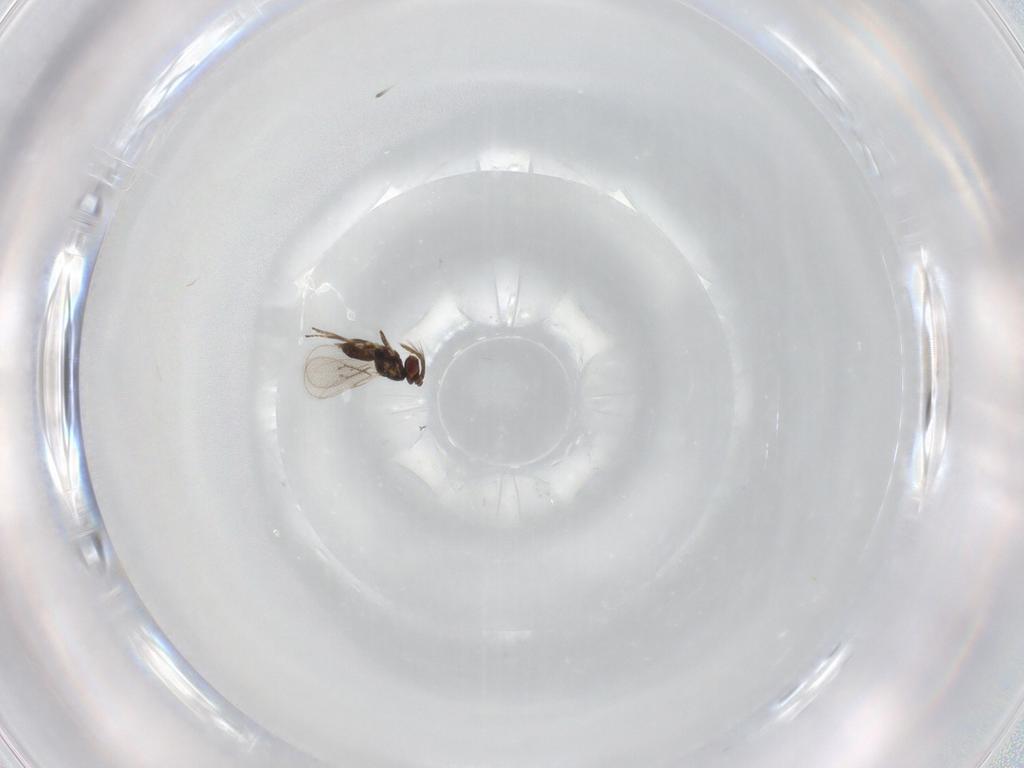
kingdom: Animalia
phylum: Arthropoda
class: Insecta
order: Hymenoptera
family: Eulophidae
